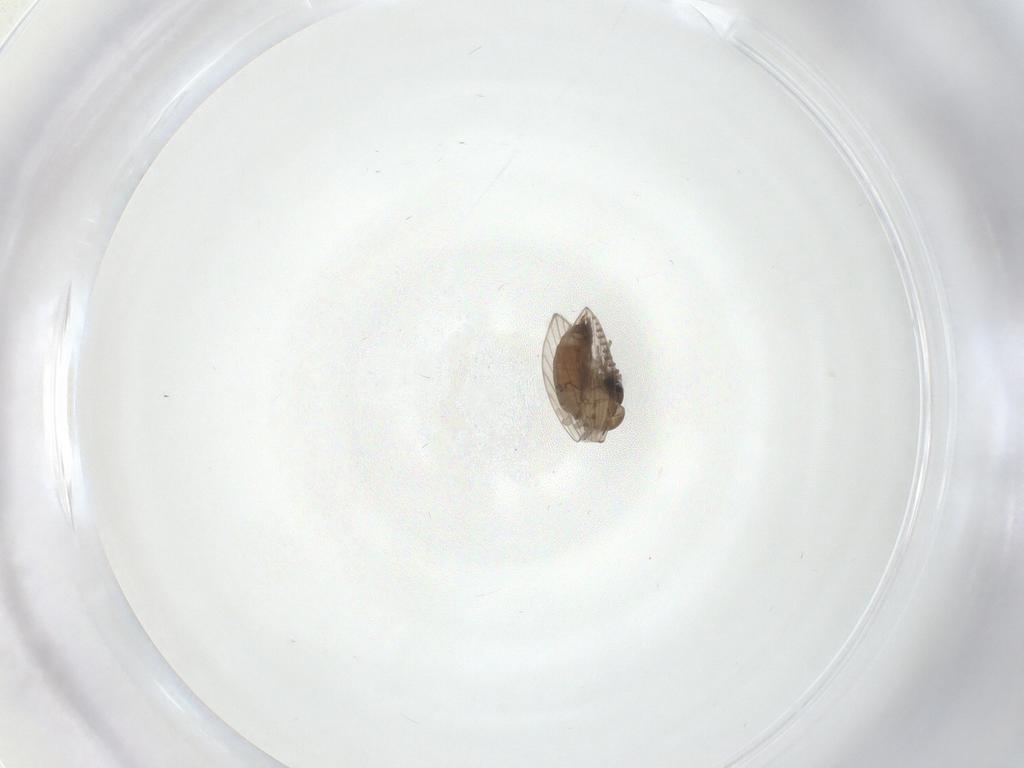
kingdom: Animalia
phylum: Arthropoda
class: Insecta
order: Diptera
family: Psychodidae
